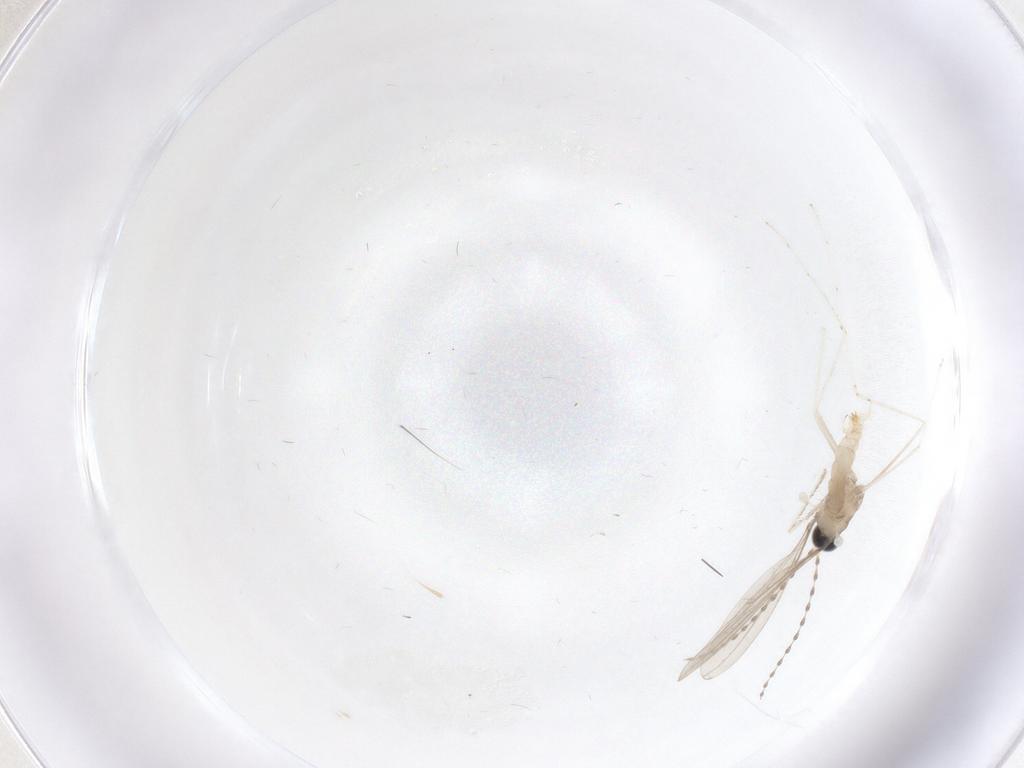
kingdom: Animalia
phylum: Arthropoda
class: Insecta
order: Diptera
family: Cecidomyiidae
